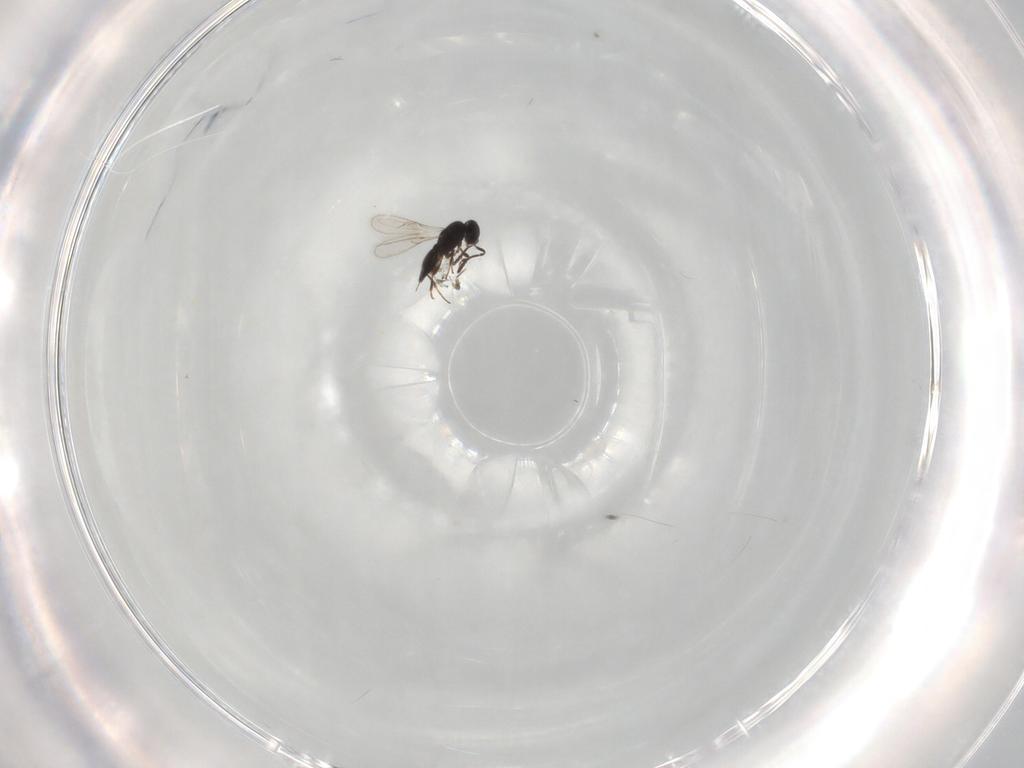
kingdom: Animalia
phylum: Arthropoda
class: Insecta
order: Hymenoptera
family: Scelionidae
